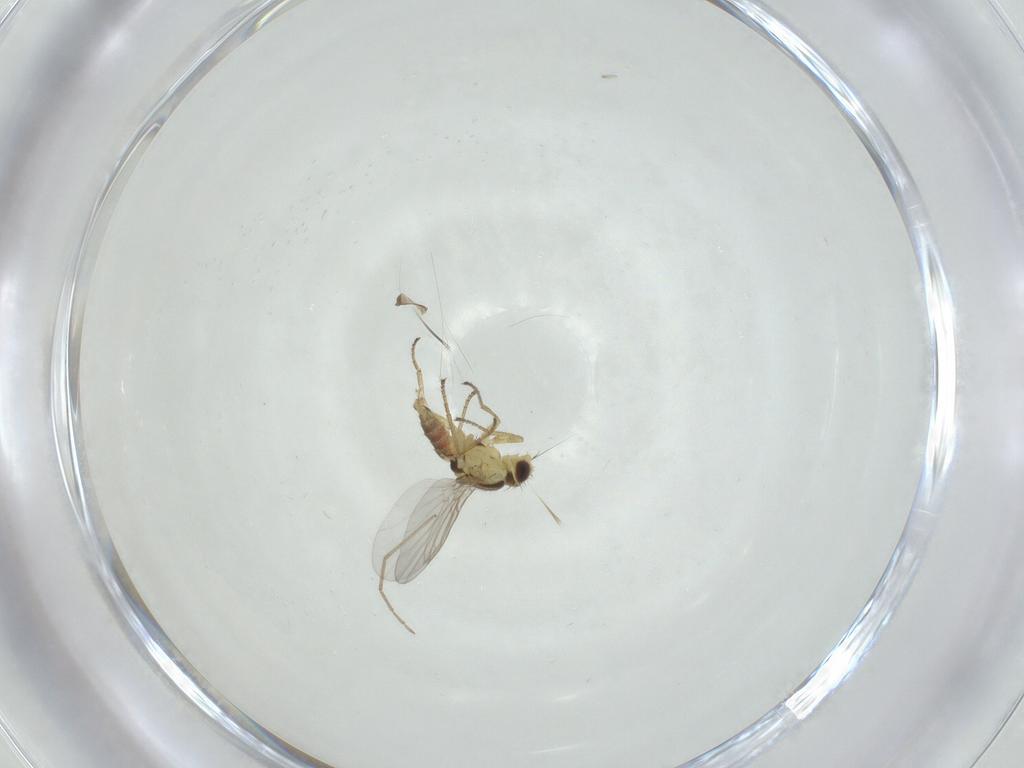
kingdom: Animalia
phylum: Arthropoda
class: Insecta
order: Diptera
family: Agromyzidae
